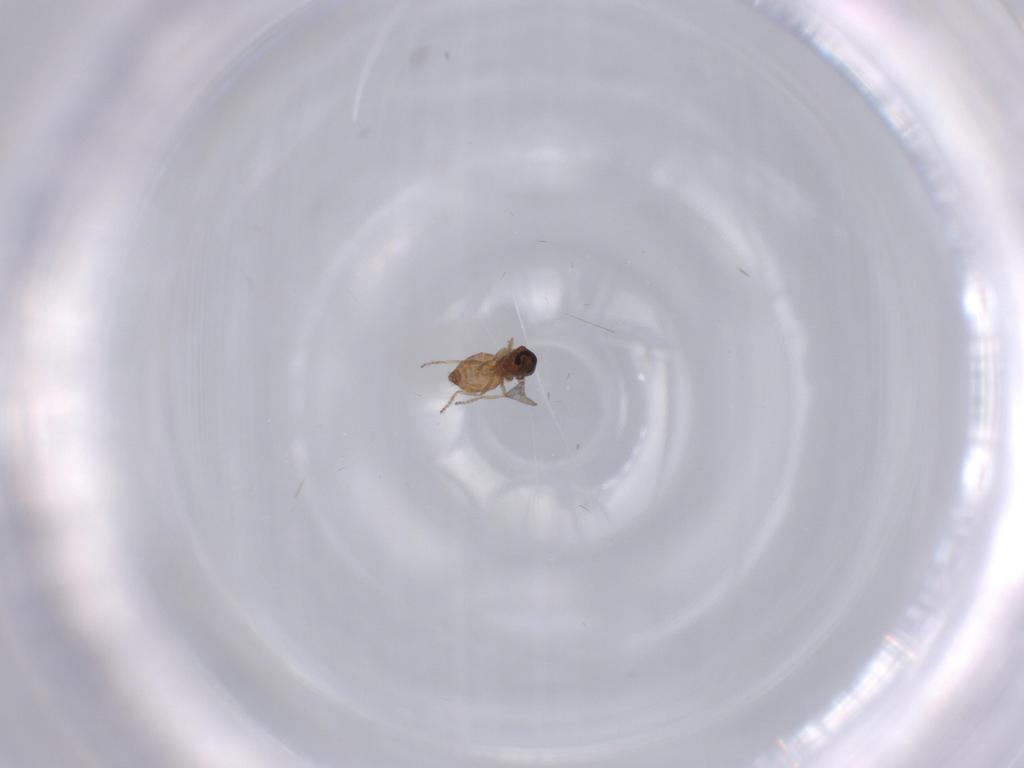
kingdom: Animalia
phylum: Arthropoda
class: Insecta
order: Diptera
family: Ceratopogonidae
